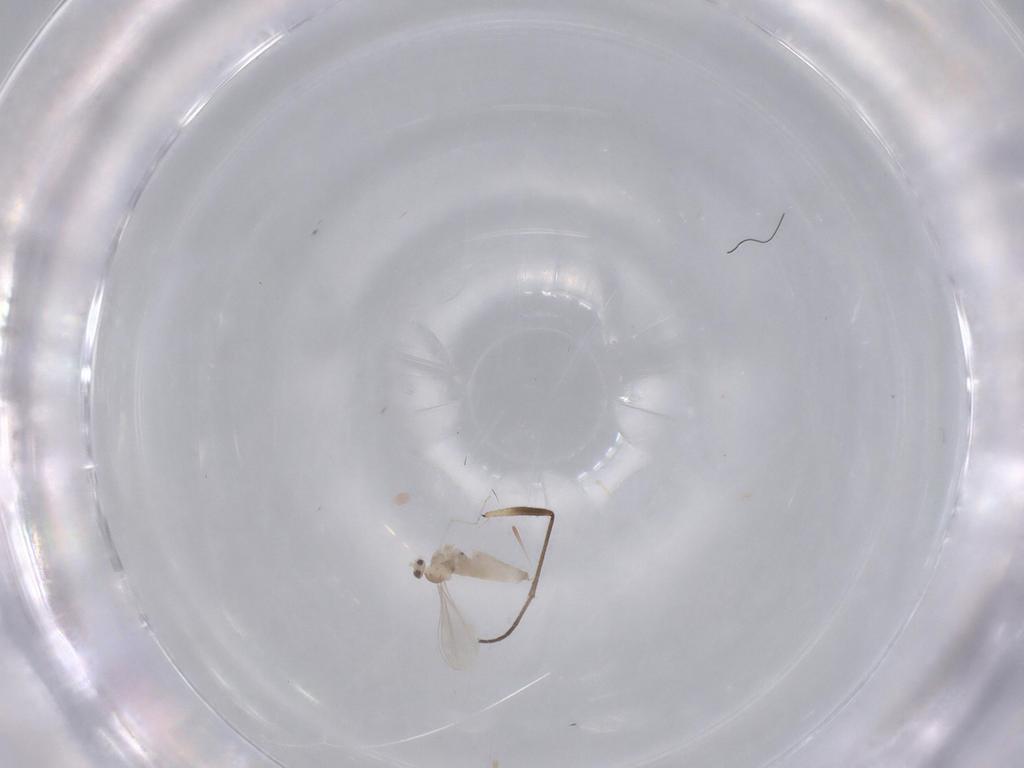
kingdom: Animalia
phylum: Arthropoda
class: Insecta
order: Diptera
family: Cecidomyiidae
